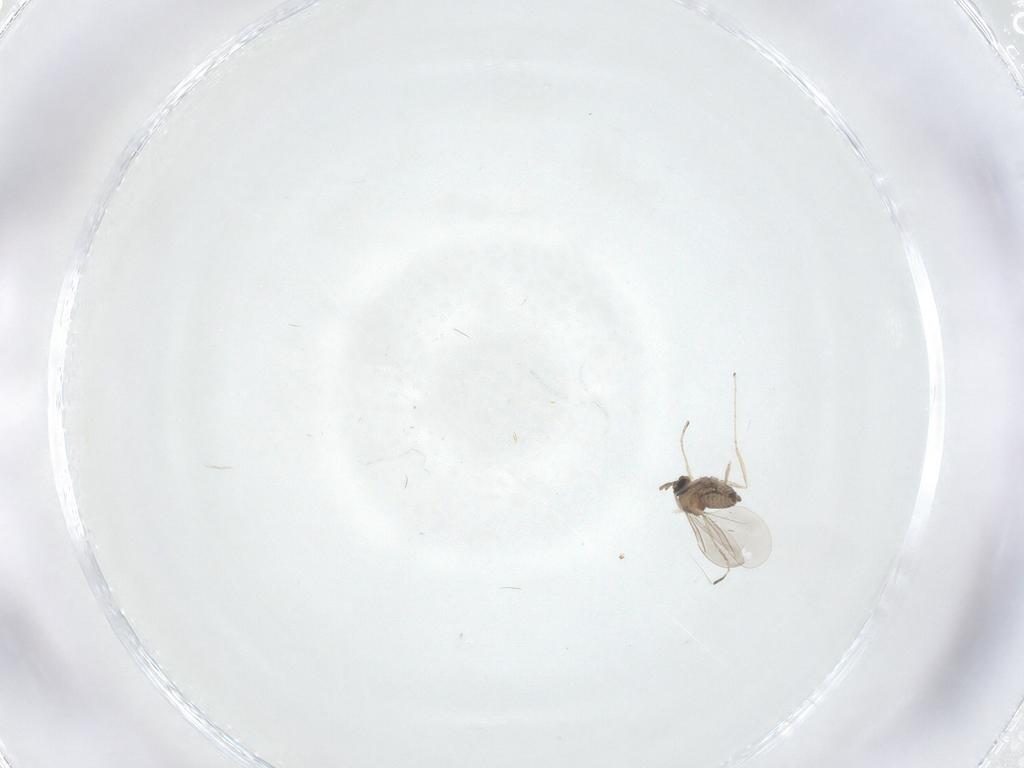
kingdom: Animalia
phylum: Arthropoda
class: Insecta
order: Diptera
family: Cecidomyiidae
